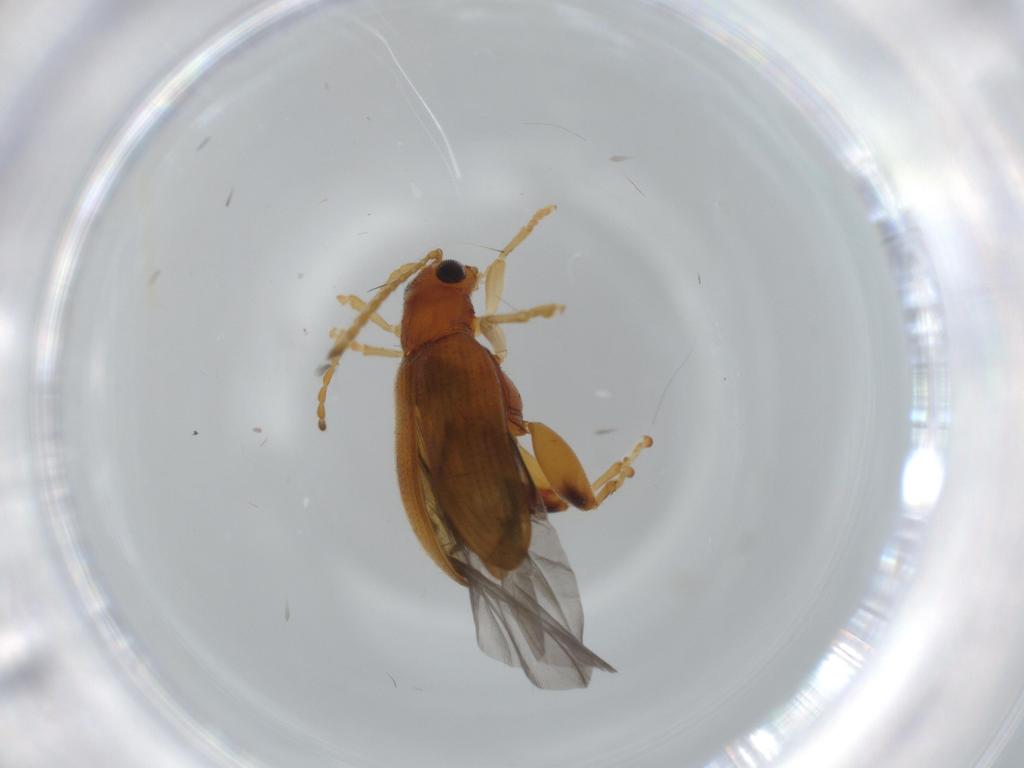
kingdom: Animalia
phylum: Arthropoda
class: Insecta
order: Coleoptera
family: Chrysomelidae
